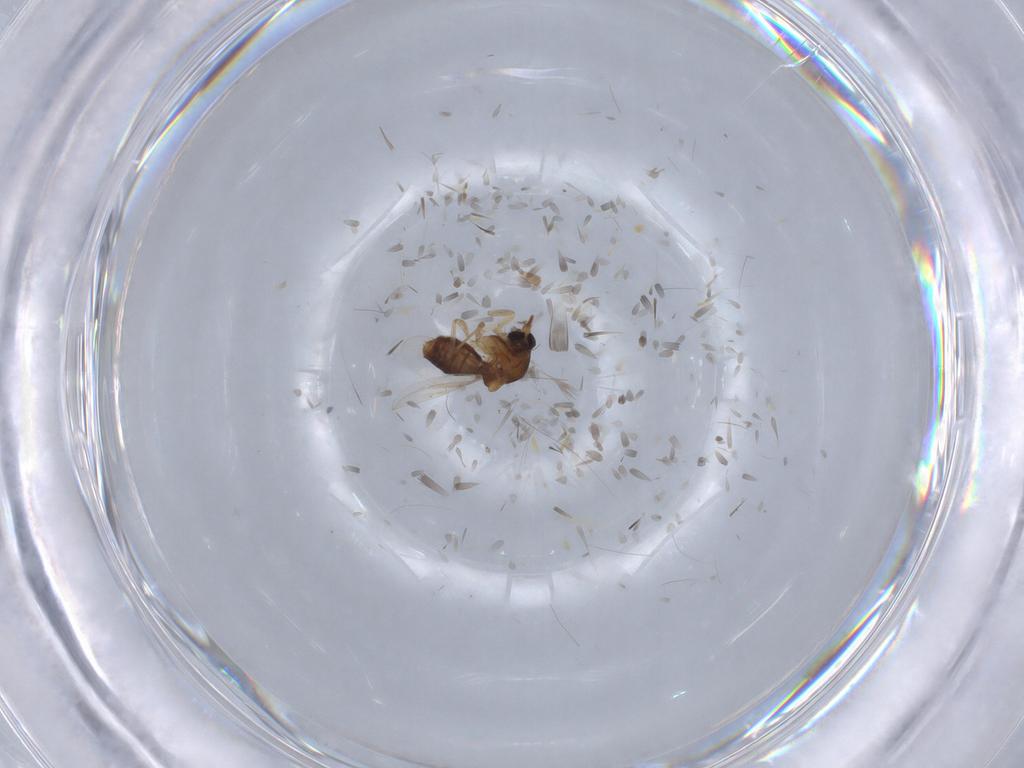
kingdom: Animalia
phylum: Arthropoda
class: Insecta
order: Diptera
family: Ceratopogonidae
